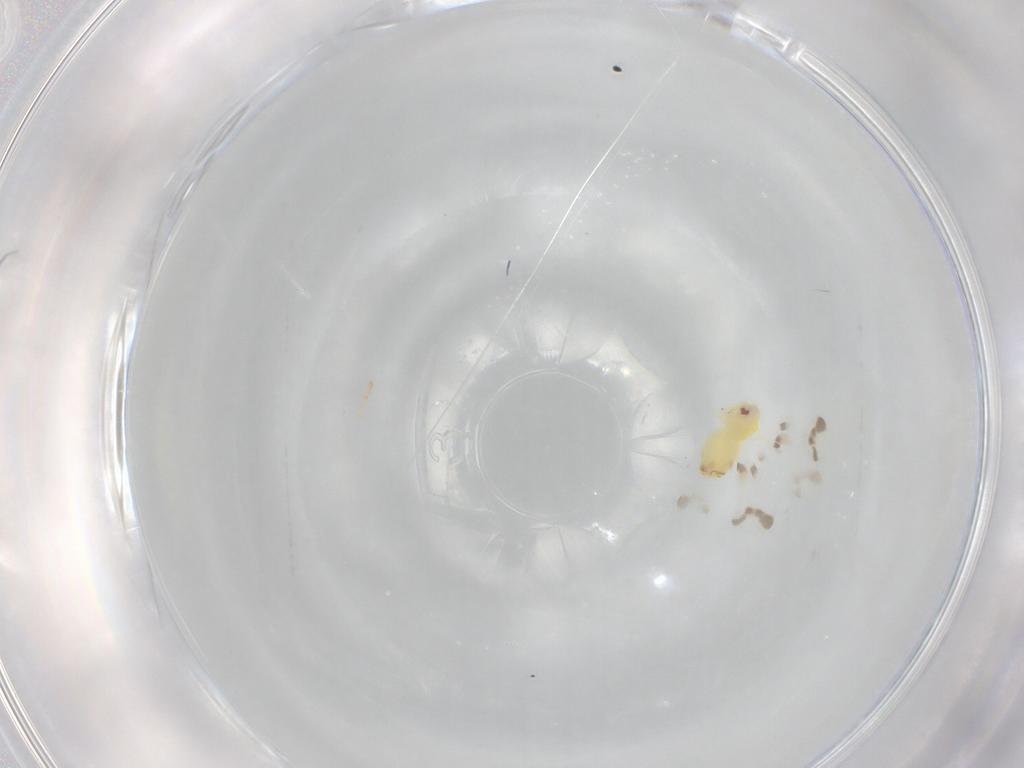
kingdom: Animalia
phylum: Arthropoda
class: Insecta
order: Hemiptera
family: Aleyrodidae
